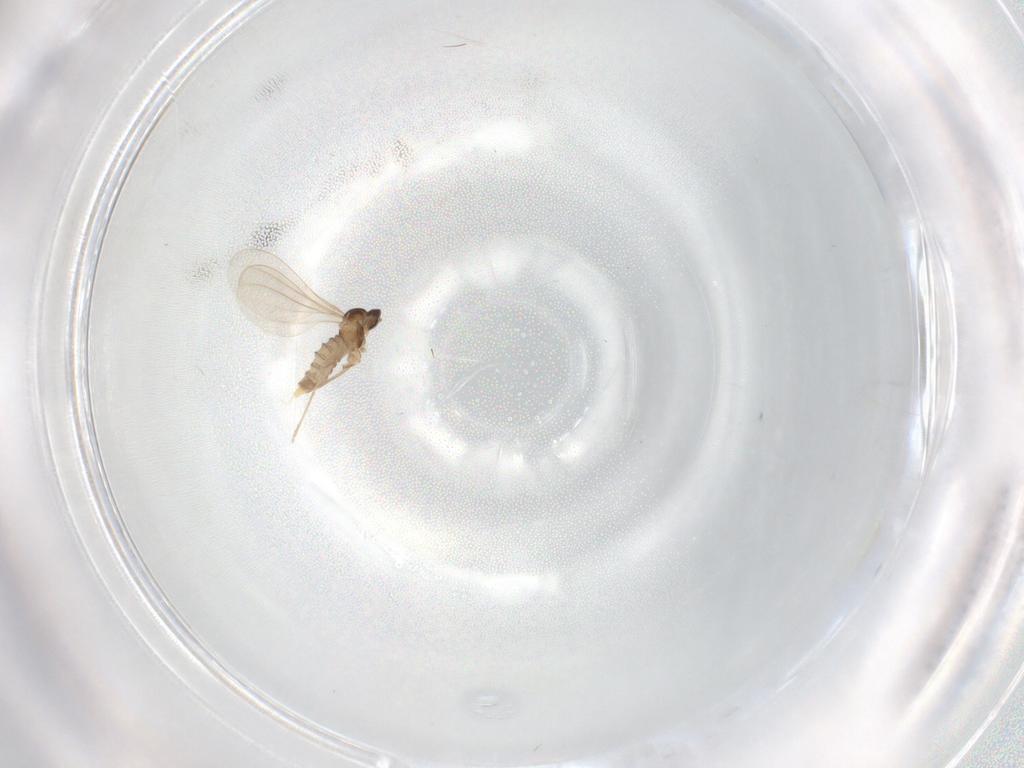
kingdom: Animalia
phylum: Arthropoda
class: Insecta
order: Diptera
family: Cecidomyiidae
